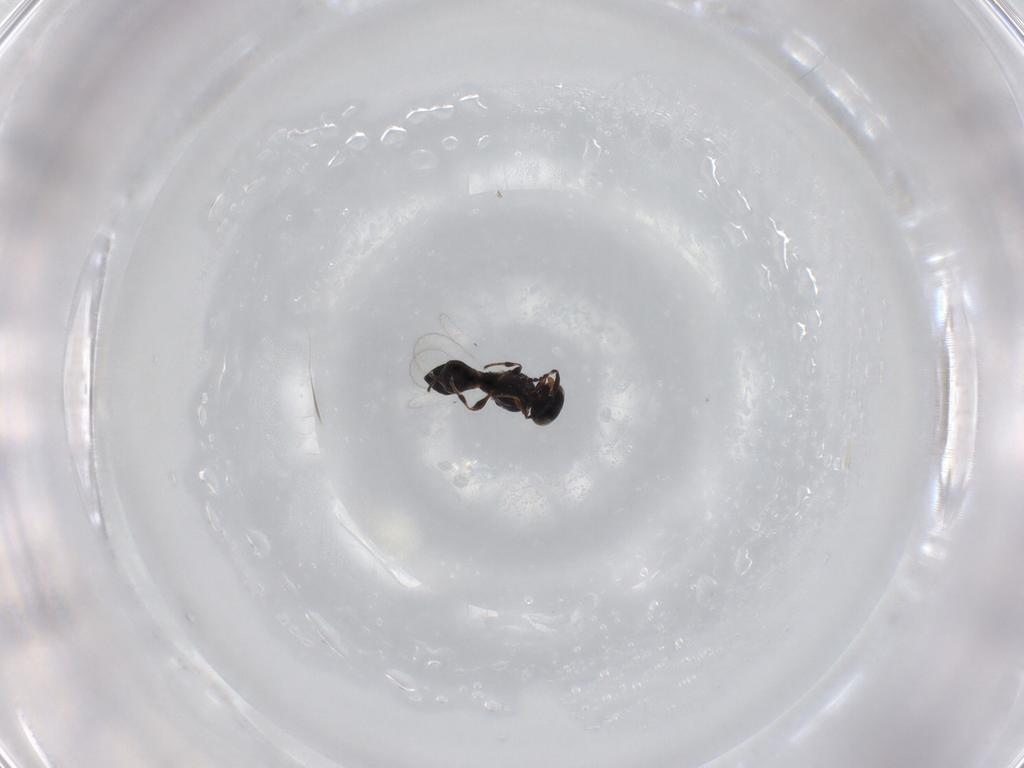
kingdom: Animalia
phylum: Arthropoda
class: Insecta
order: Hymenoptera
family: Platygastridae
